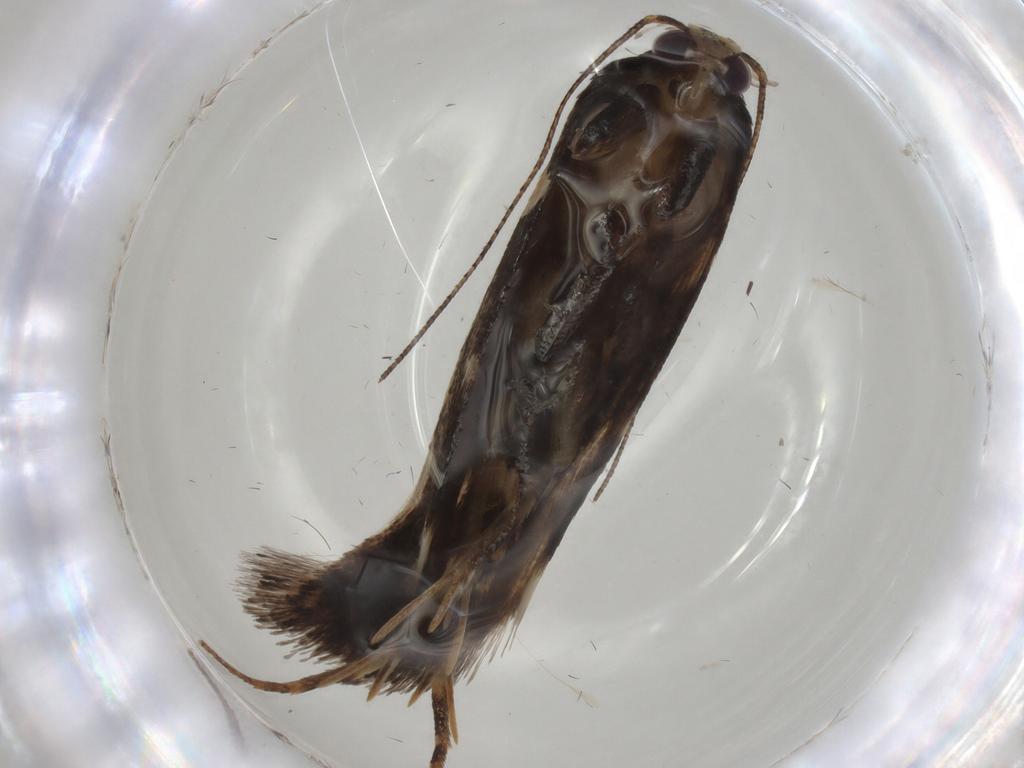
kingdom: Animalia
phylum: Arthropoda
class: Insecta
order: Lepidoptera
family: Gelechiidae
